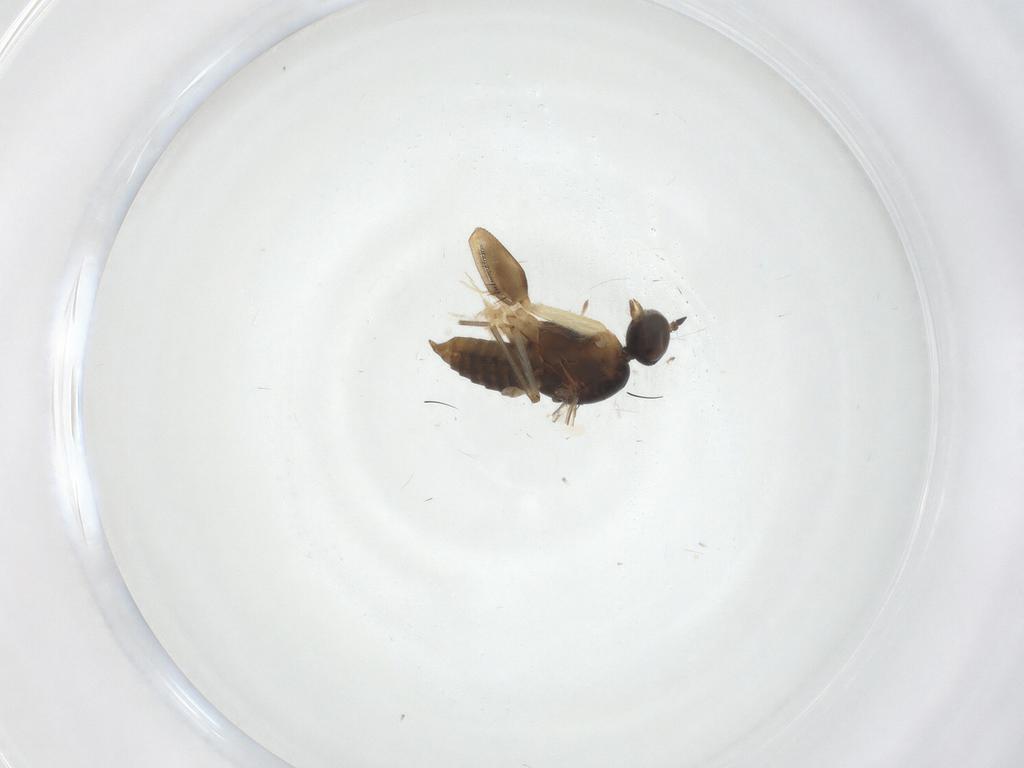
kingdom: Animalia
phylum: Arthropoda
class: Insecta
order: Diptera
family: Empididae
